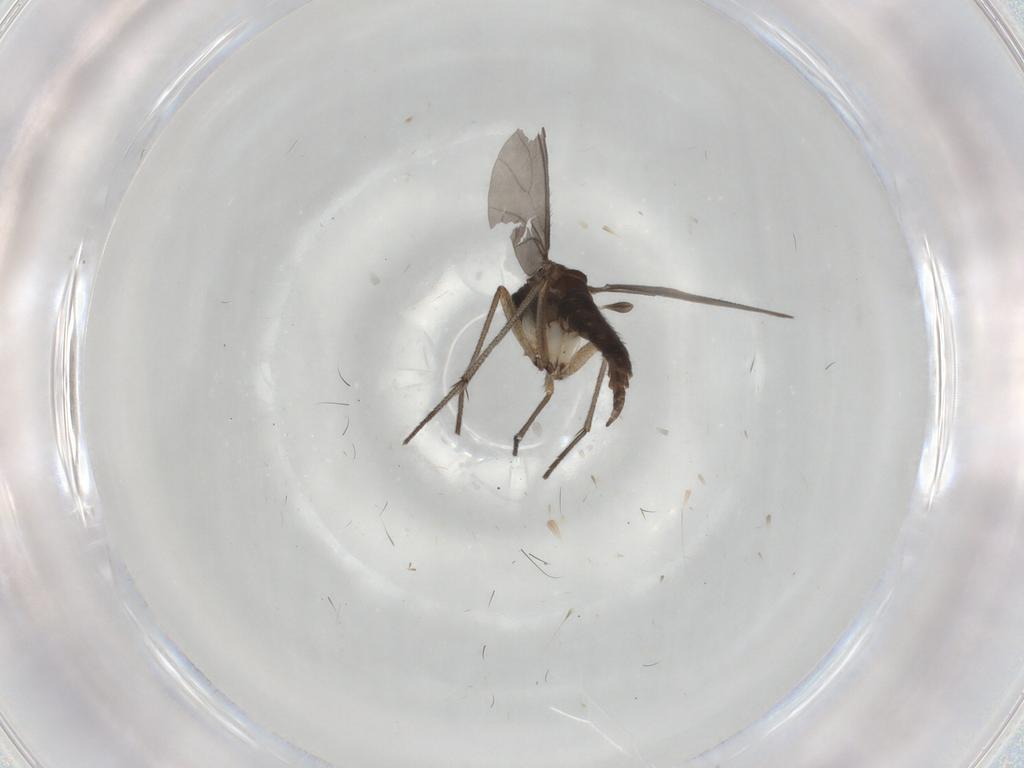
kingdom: Animalia
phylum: Arthropoda
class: Insecta
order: Diptera
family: Sciaridae
